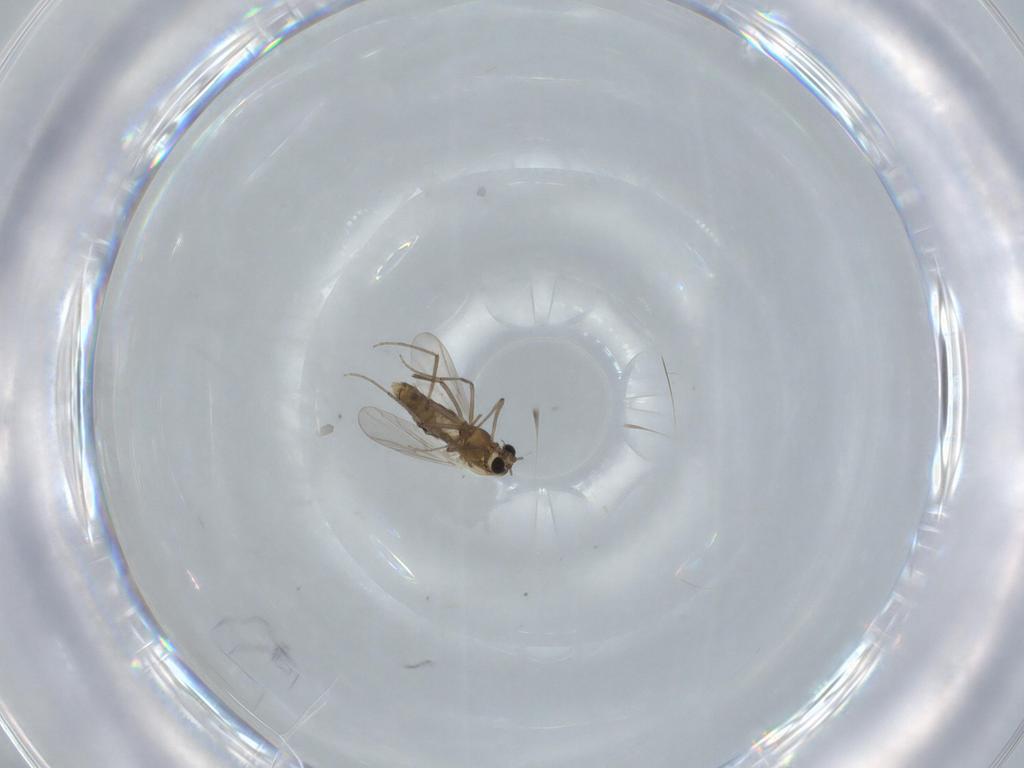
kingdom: Animalia
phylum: Arthropoda
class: Insecta
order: Diptera
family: Chironomidae
